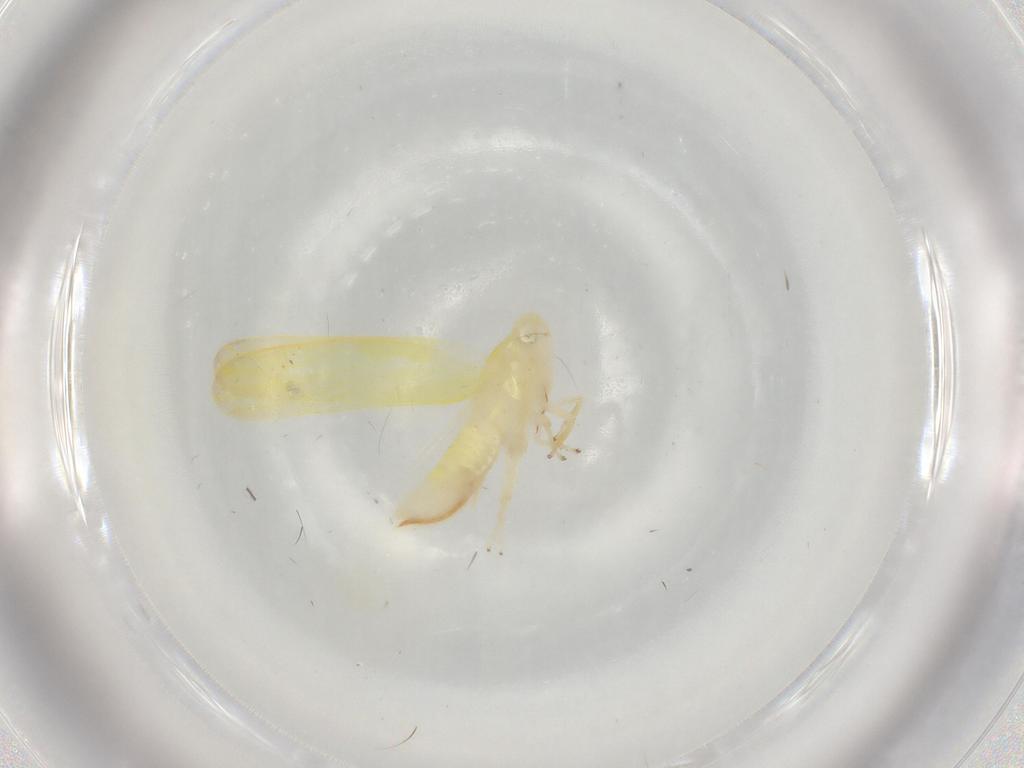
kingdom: Animalia
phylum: Arthropoda
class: Insecta
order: Hemiptera
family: Cicadellidae
